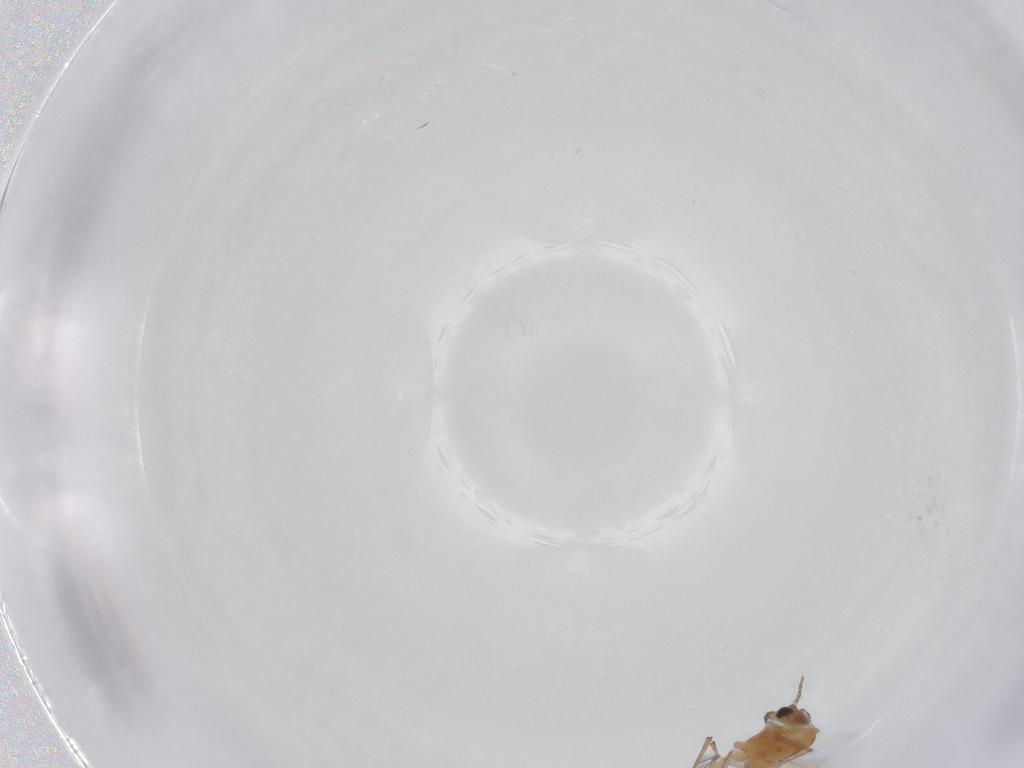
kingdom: Animalia
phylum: Arthropoda
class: Insecta
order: Diptera
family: Chironomidae
